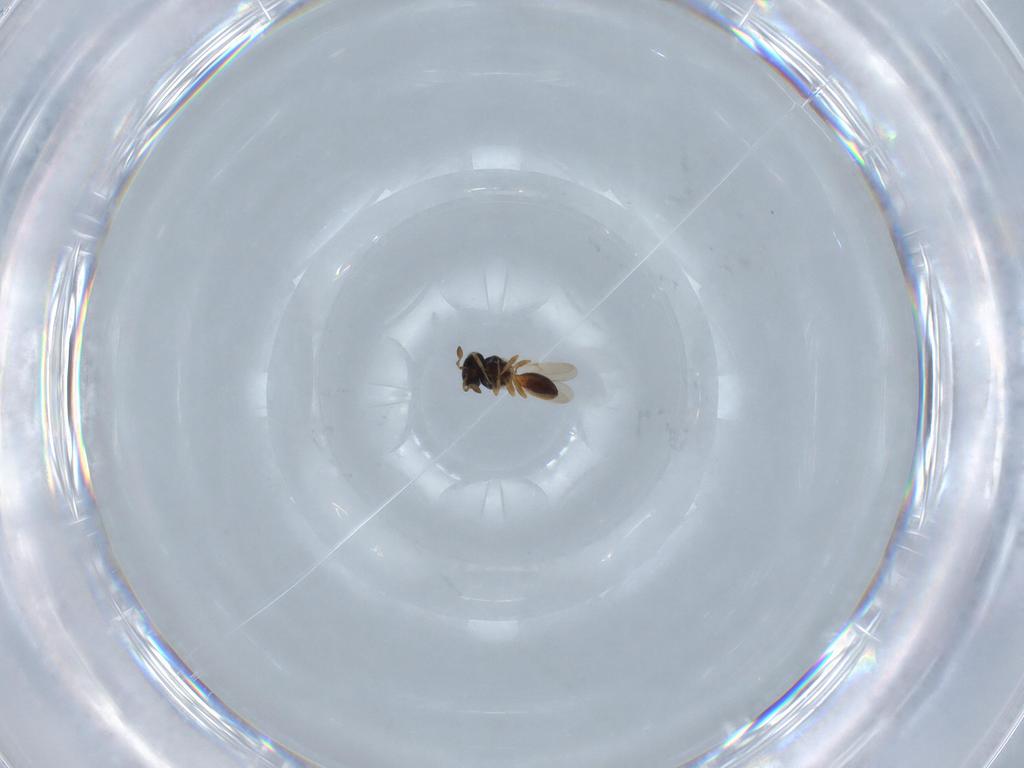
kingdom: Animalia
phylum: Arthropoda
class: Insecta
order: Hymenoptera
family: Scelionidae
